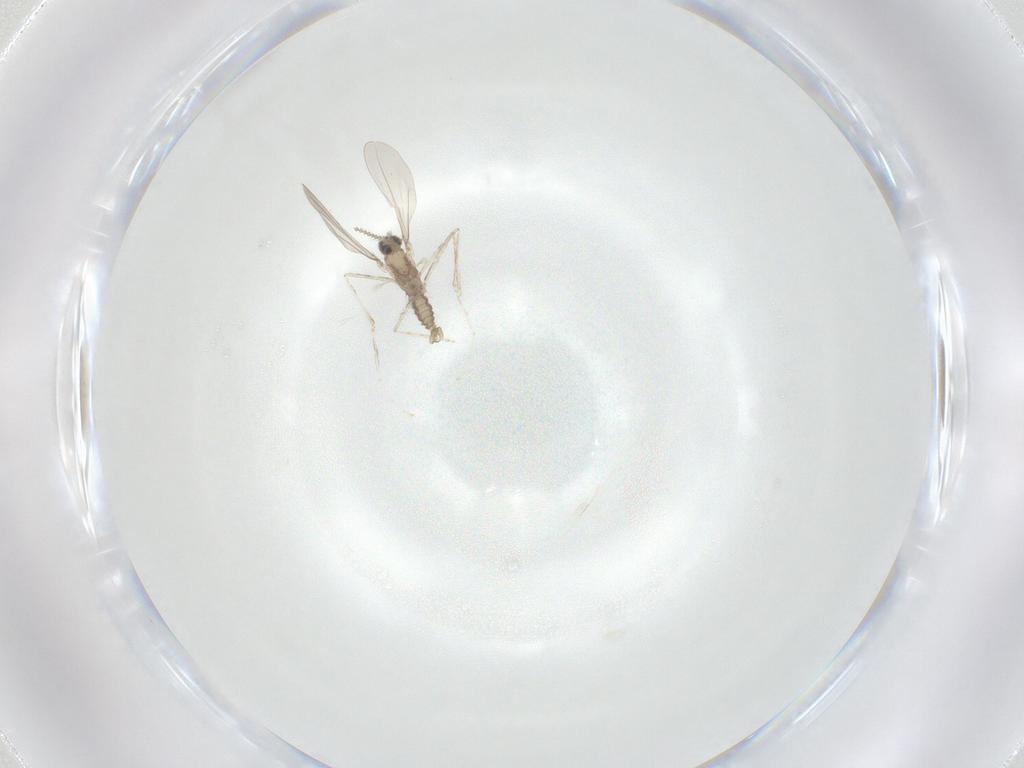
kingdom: Animalia
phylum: Arthropoda
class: Insecta
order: Diptera
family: Cecidomyiidae
